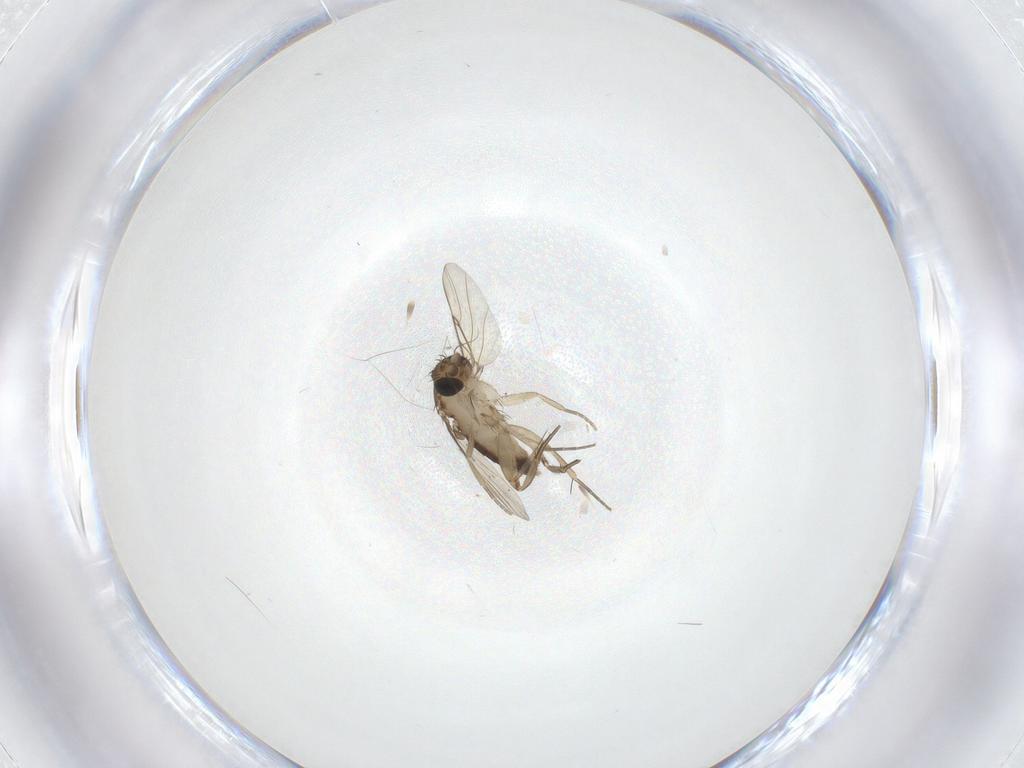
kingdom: Animalia
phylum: Arthropoda
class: Insecta
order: Diptera
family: Phoridae
